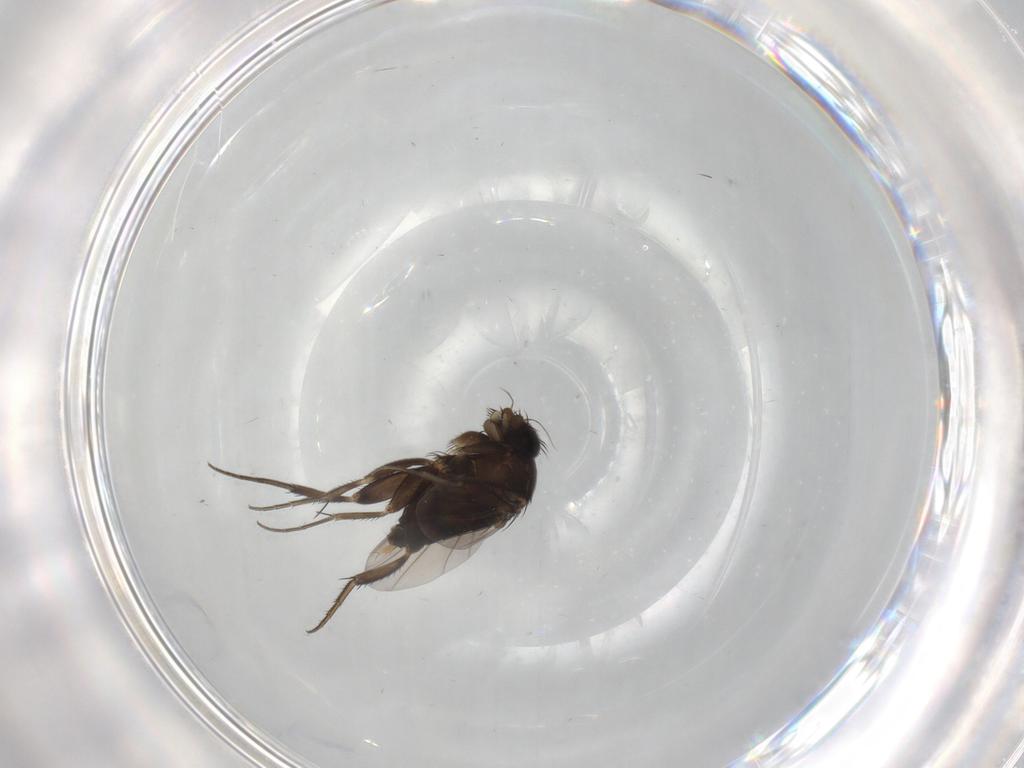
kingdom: Animalia
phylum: Arthropoda
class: Insecta
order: Diptera
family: Phoridae
